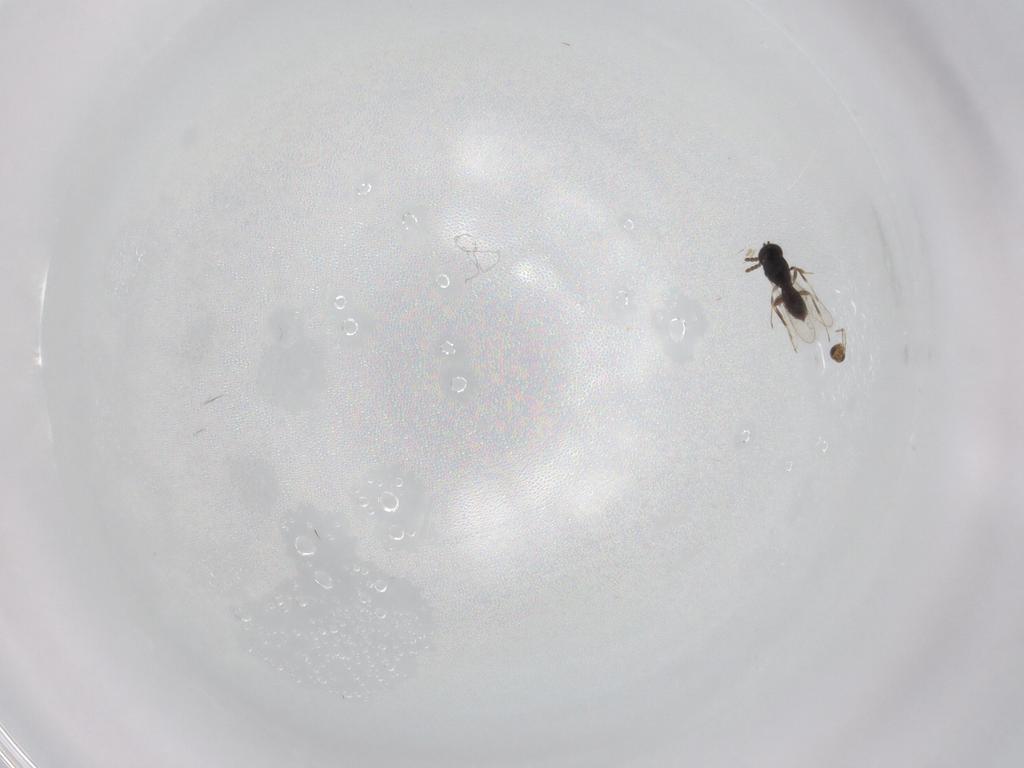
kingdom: Animalia
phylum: Arthropoda
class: Insecta
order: Hymenoptera
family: Scelionidae
